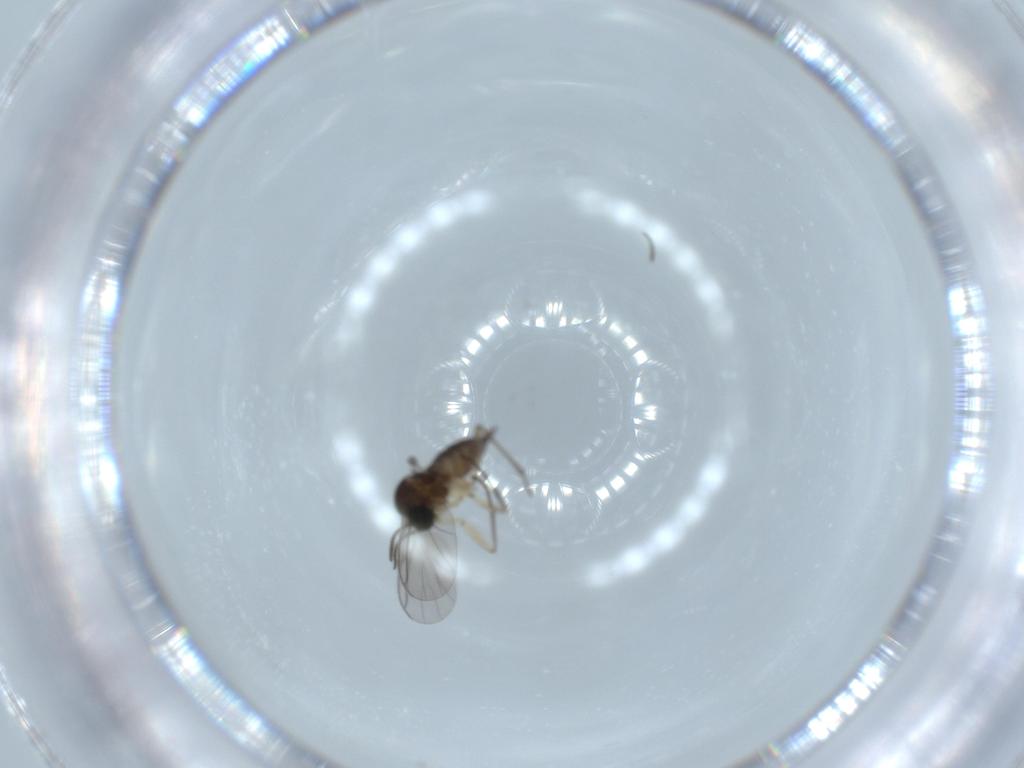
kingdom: Animalia
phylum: Arthropoda
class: Insecta
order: Diptera
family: Sciaridae
